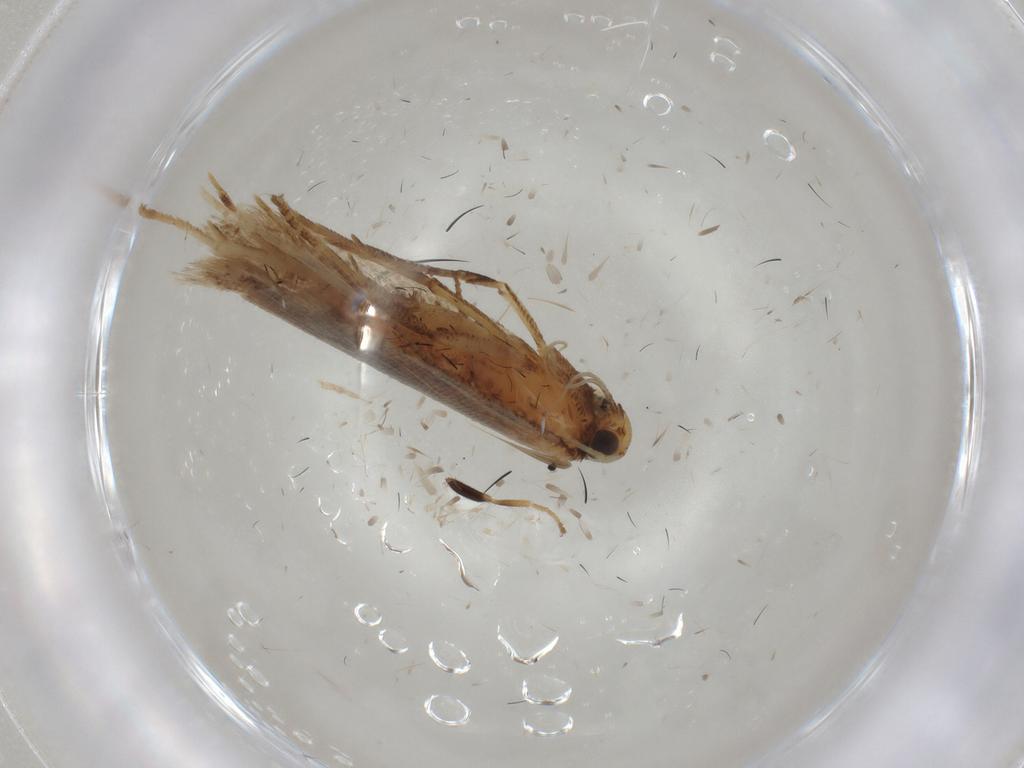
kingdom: Animalia
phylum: Arthropoda
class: Insecta
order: Lepidoptera
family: Gelechiidae
